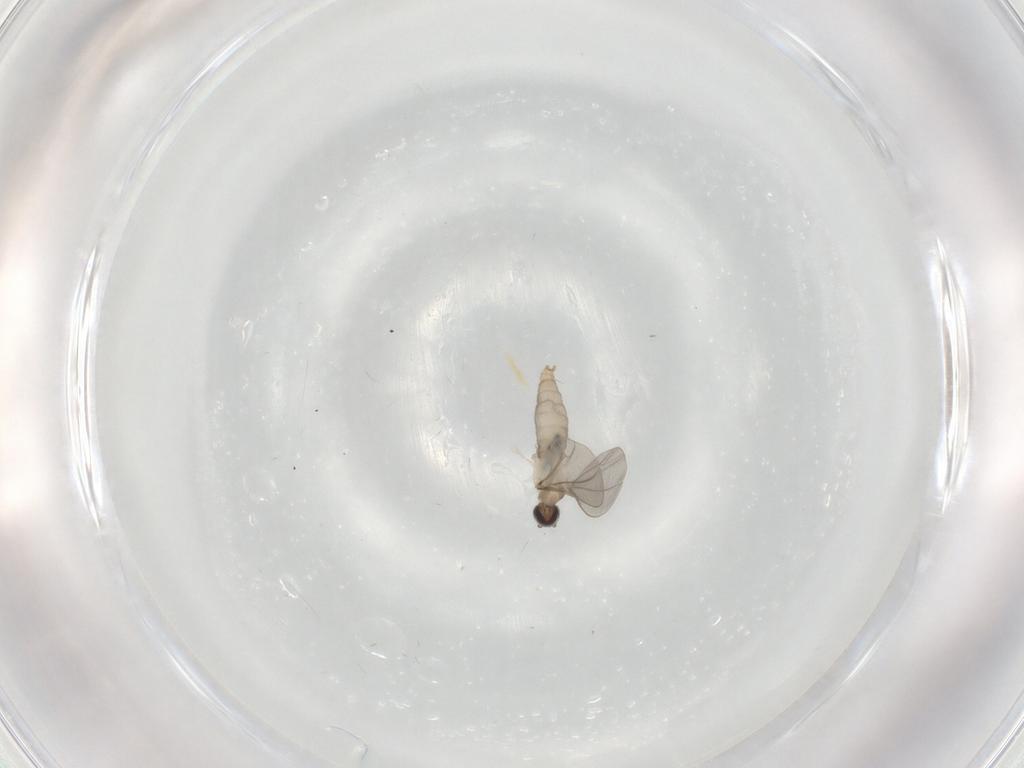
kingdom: Animalia
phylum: Arthropoda
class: Insecta
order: Diptera
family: Cecidomyiidae
